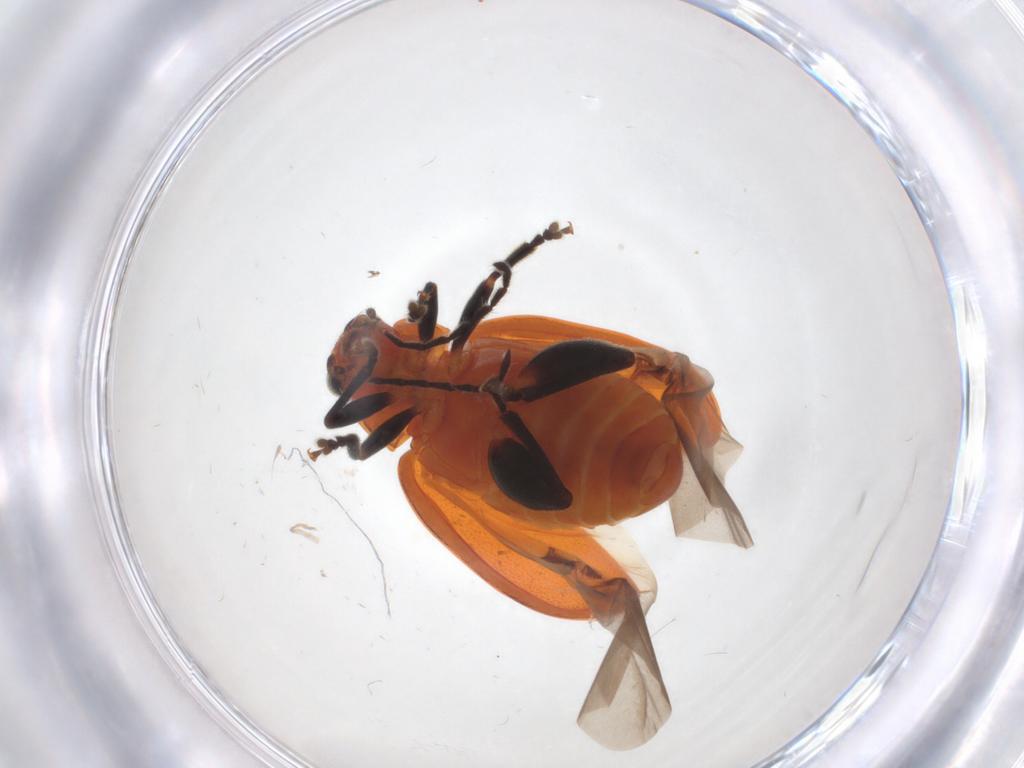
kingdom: Animalia
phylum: Arthropoda
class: Insecta
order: Coleoptera
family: Chrysomelidae
